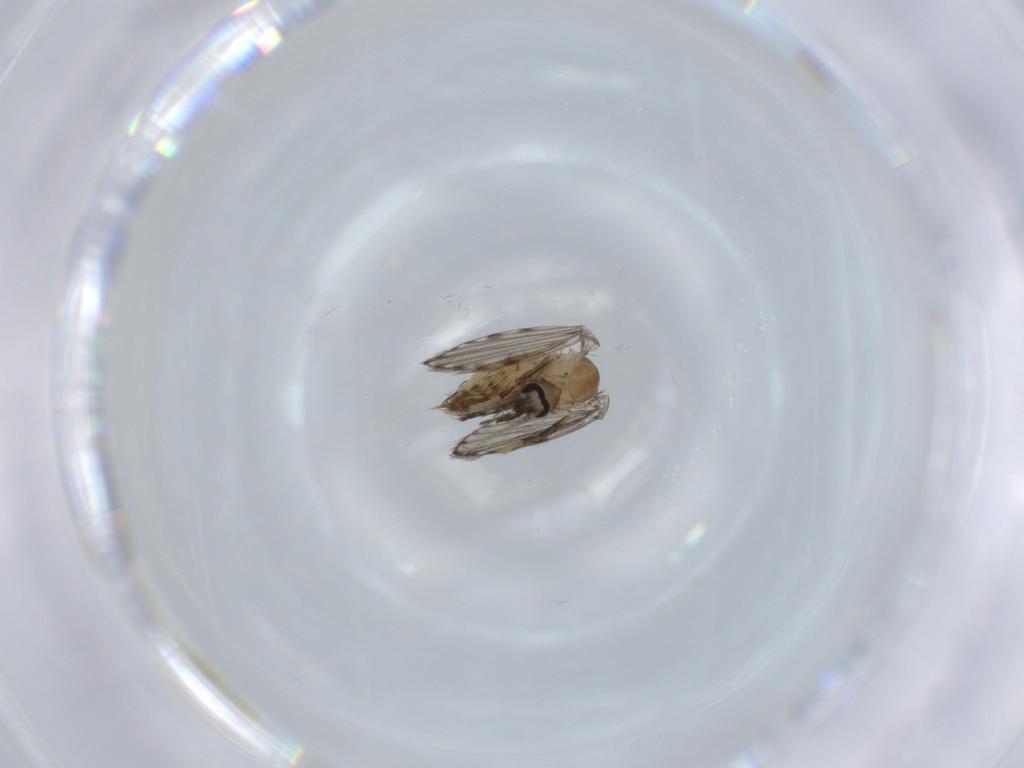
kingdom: Animalia
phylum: Arthropoda
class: Insecta
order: Diptera
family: Psychodidae
